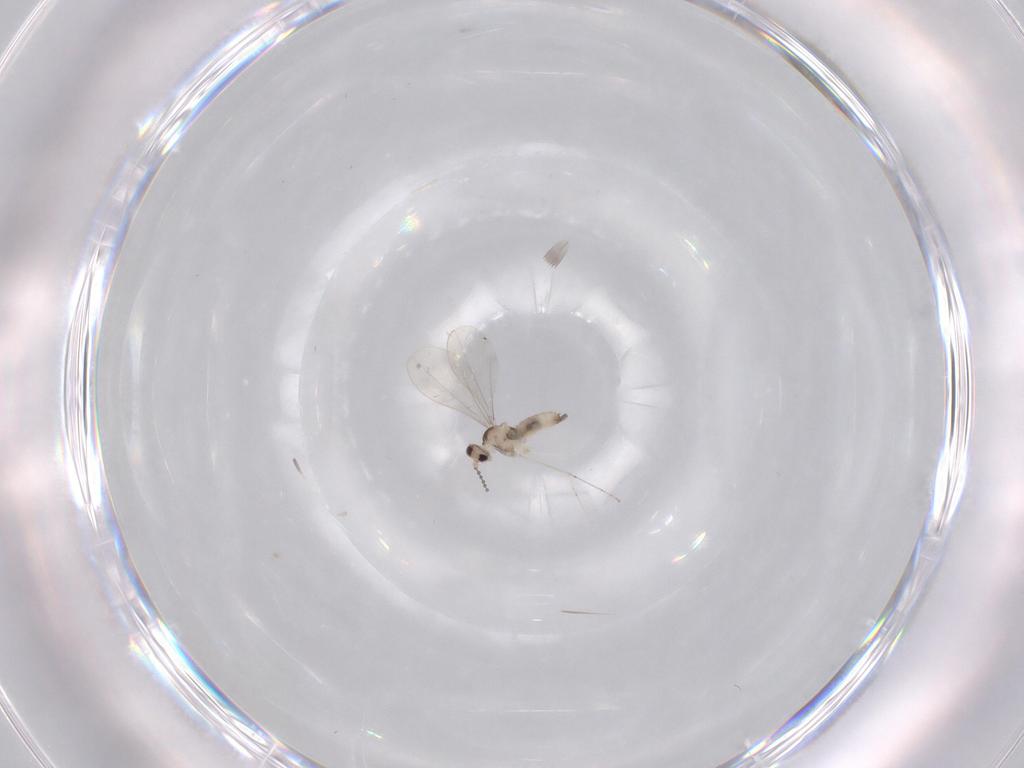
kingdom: Animalia
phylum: Arthropoda
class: Insecta
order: Diptera
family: Cecidomyiidae
